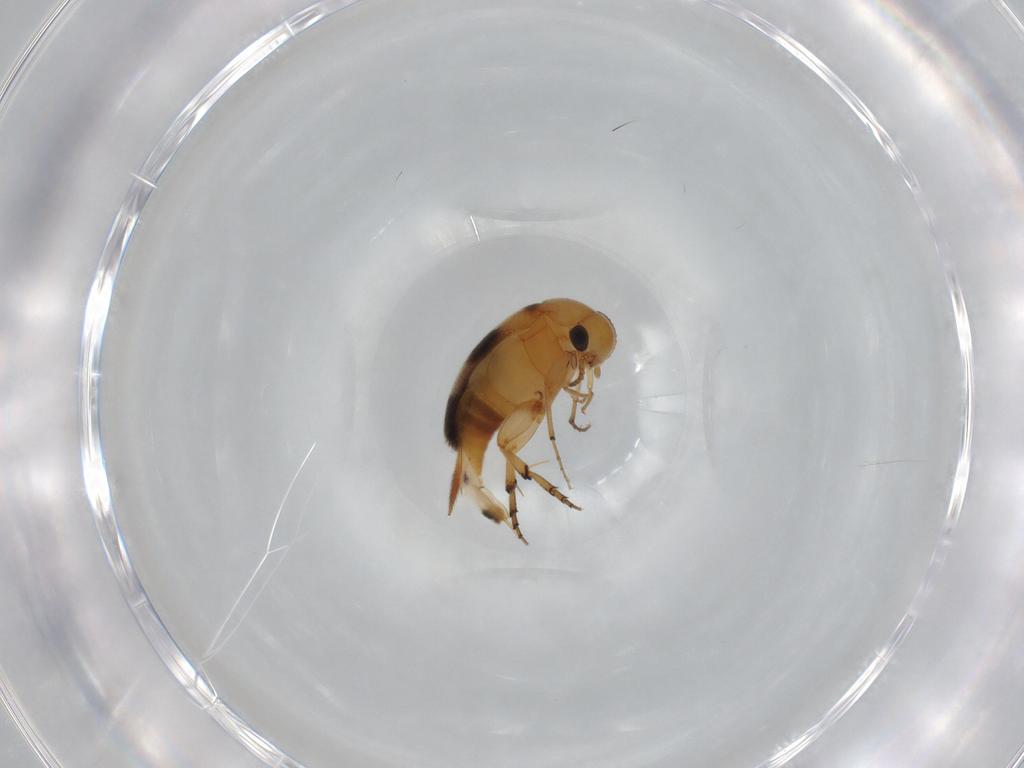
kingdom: Animalia
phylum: Arthropoda
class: Insecta
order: Coleoptera
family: Mordellidae
